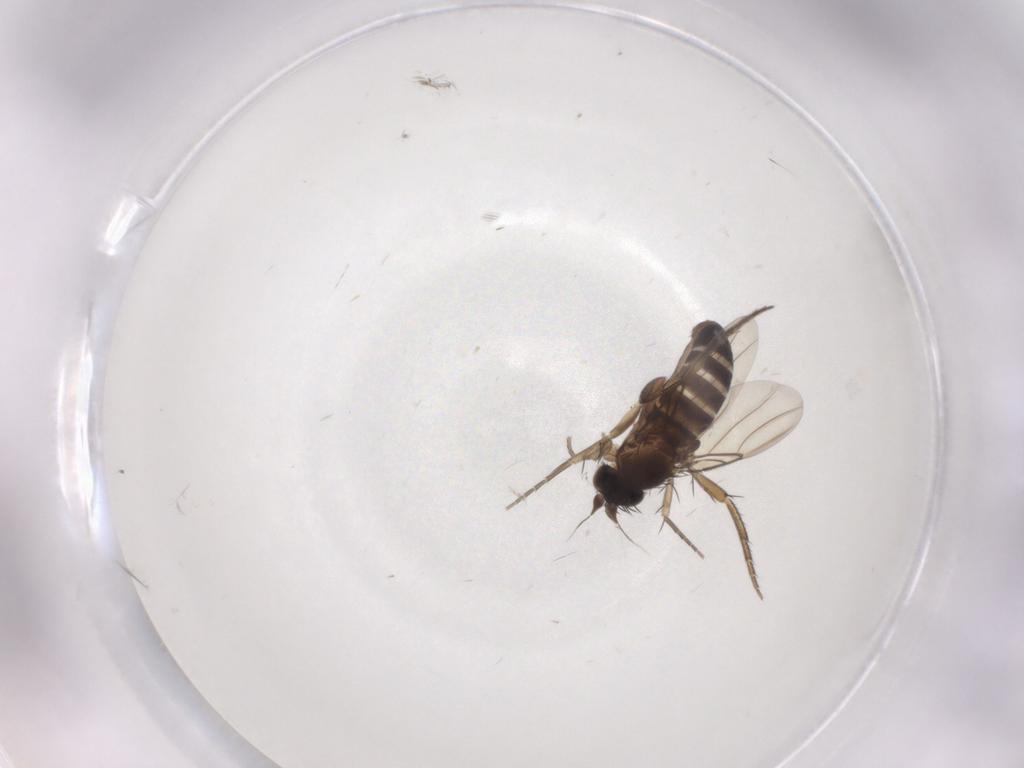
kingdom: Animalia
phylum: Arthropoda
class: Insecta
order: Diptera
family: Phoridae
